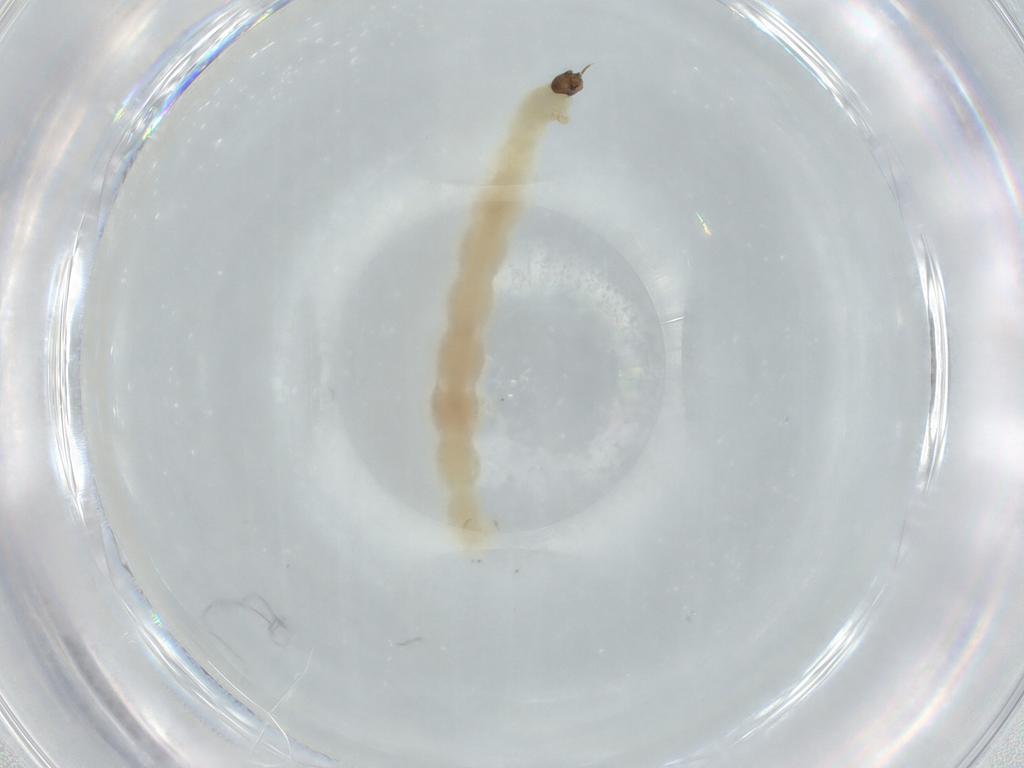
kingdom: Animalia
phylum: Arthropoda
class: Insecta
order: Diptera
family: Chironomidae
